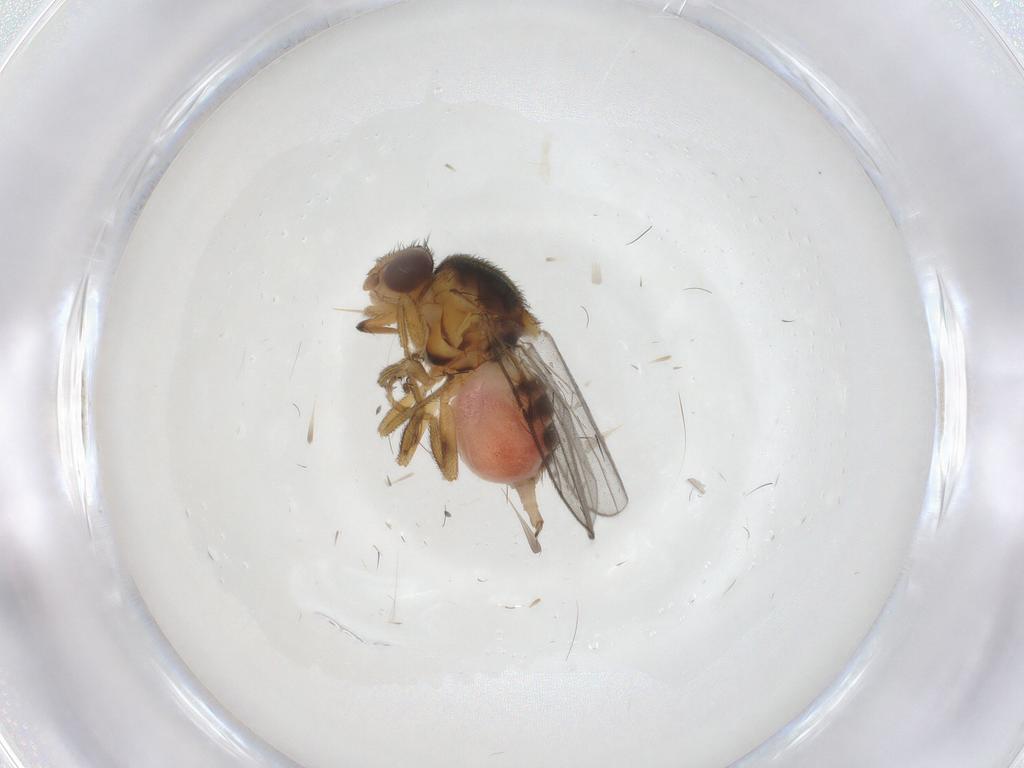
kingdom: Animalia
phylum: Arthropoda
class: Insecta
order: Diptera
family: Chloropidae
